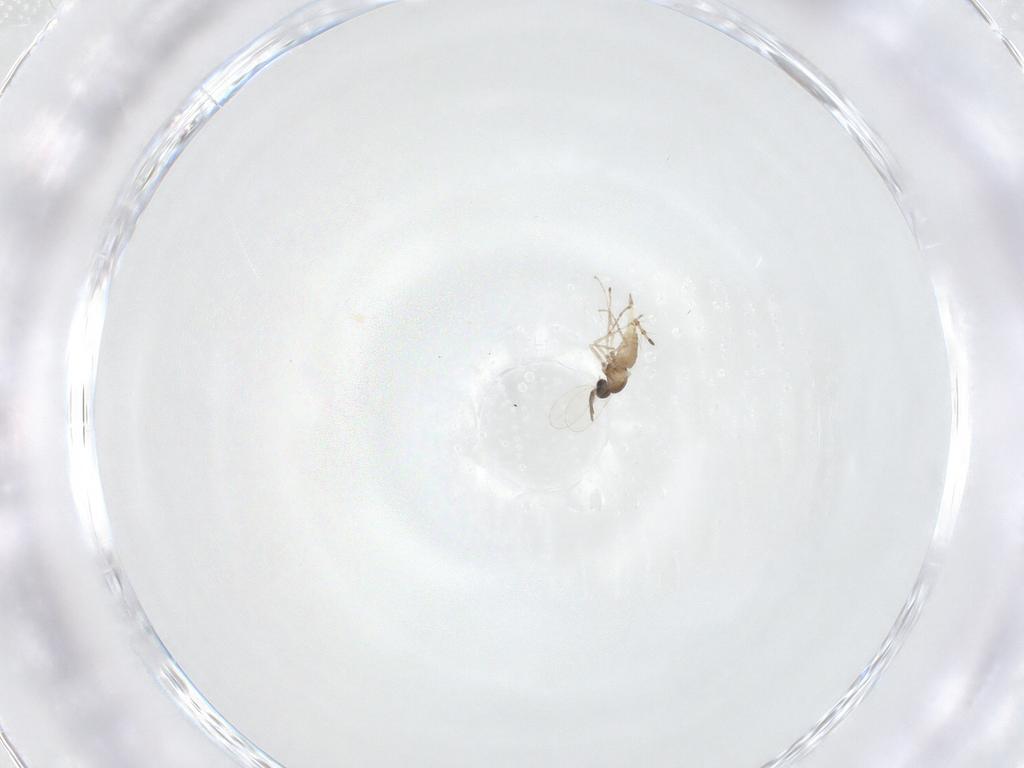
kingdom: Animalia
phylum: Arthropoda
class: Insecta
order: Diptera
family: Cecidomyiidae
